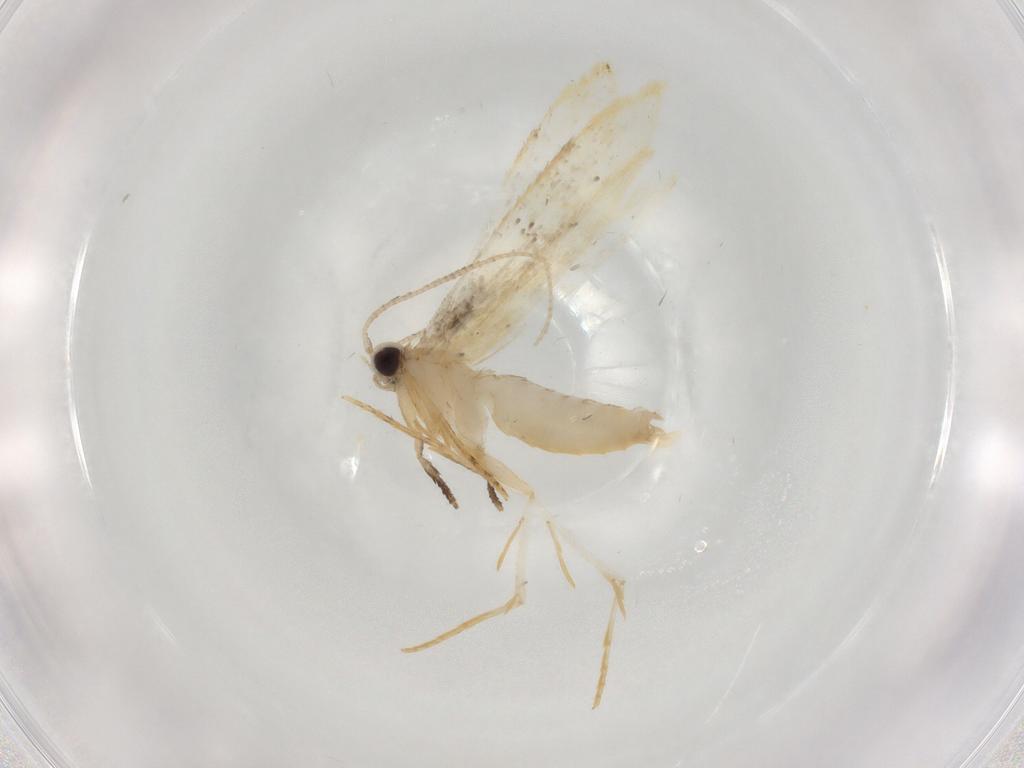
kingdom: Animalia
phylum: Arthropoda
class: Insecta
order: Lepidoptera
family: Tineidae
